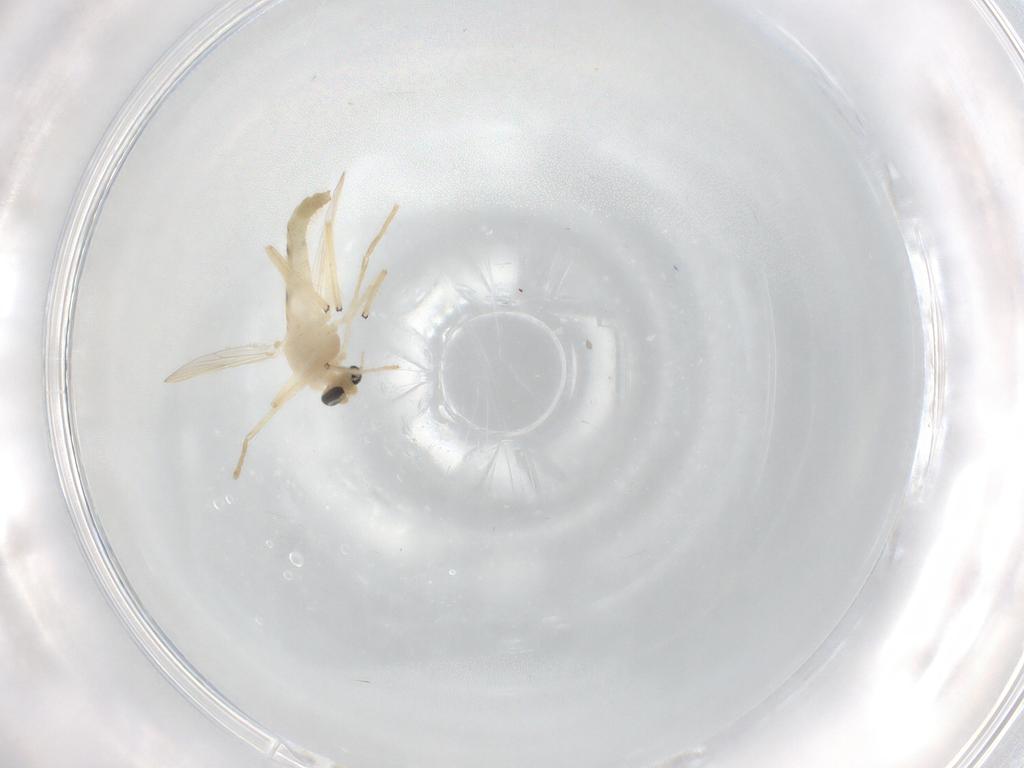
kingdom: Animalia
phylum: Arthropoda
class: Insecta
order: Diptera
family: Chironomidae
